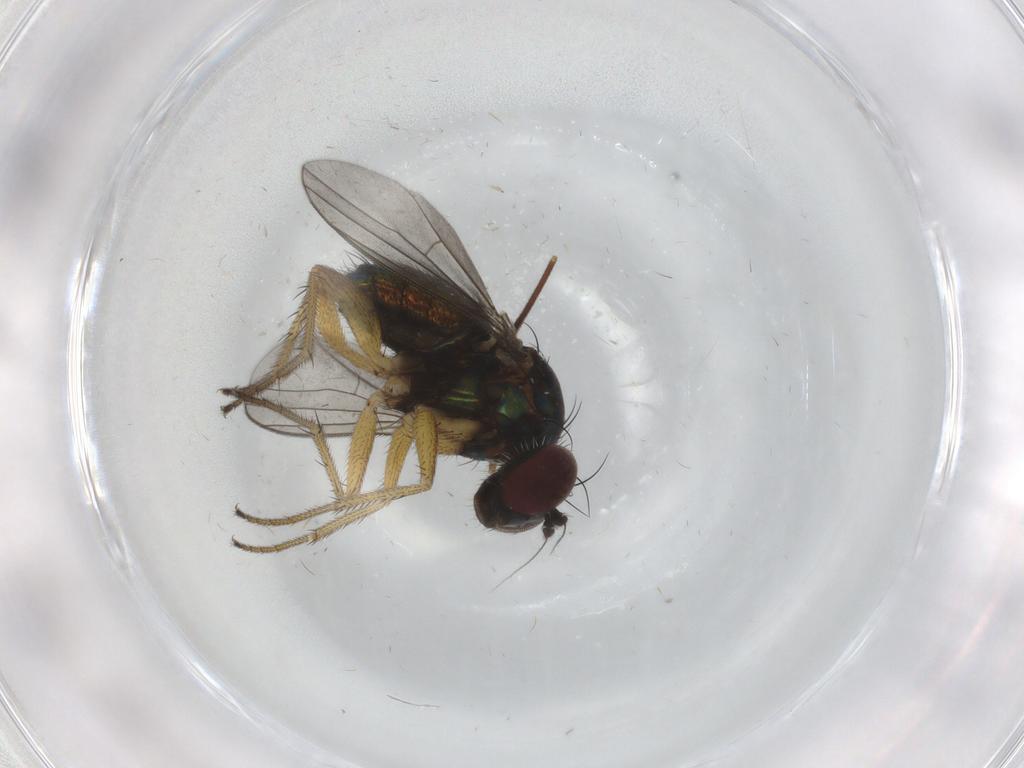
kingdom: Animalia
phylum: Arthropoda
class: Insecta
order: Diptera
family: Dolichopodidae
